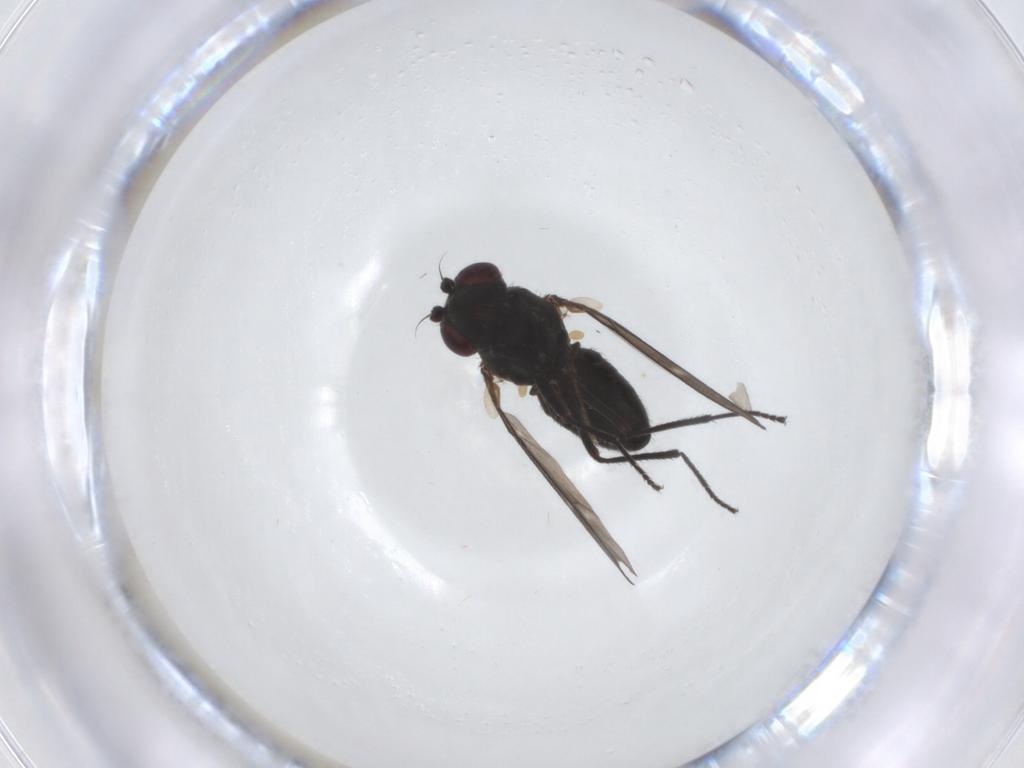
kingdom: Animalia
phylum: Arthropoda
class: Insecta
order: Diptera
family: Ephydridae
